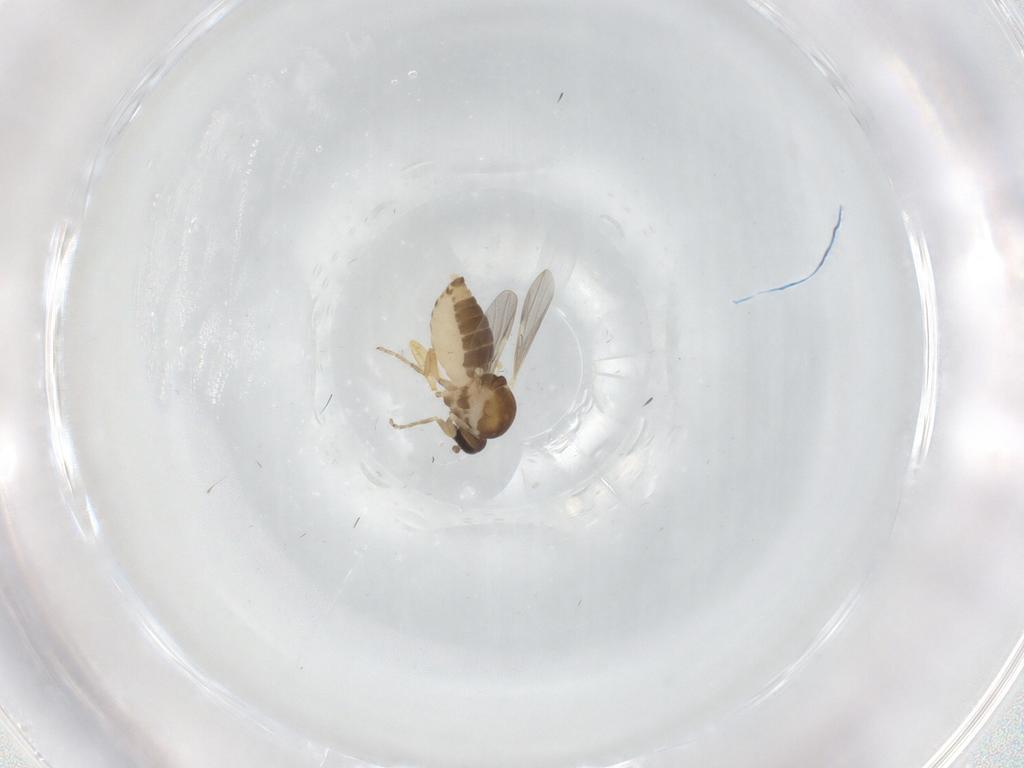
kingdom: Animalia
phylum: Arthropoda
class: Insecta
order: Diptera
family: Ceratopogonidae
